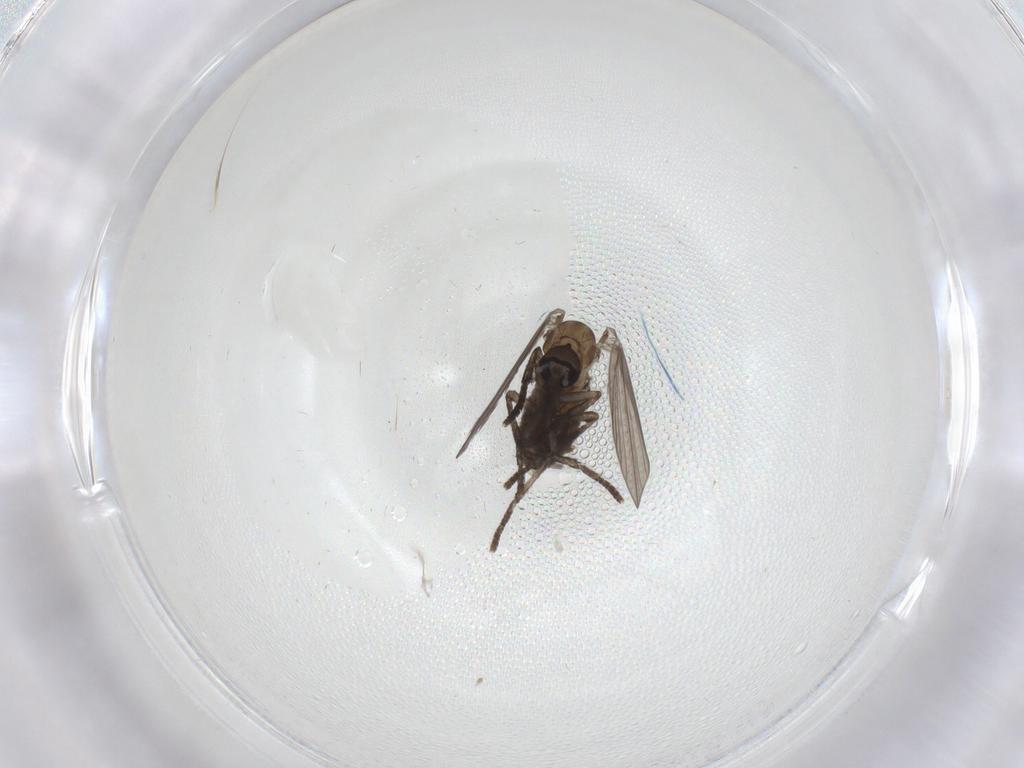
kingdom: Animalia
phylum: Arthropoda
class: Insecta
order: Diptera
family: Psychodidae
